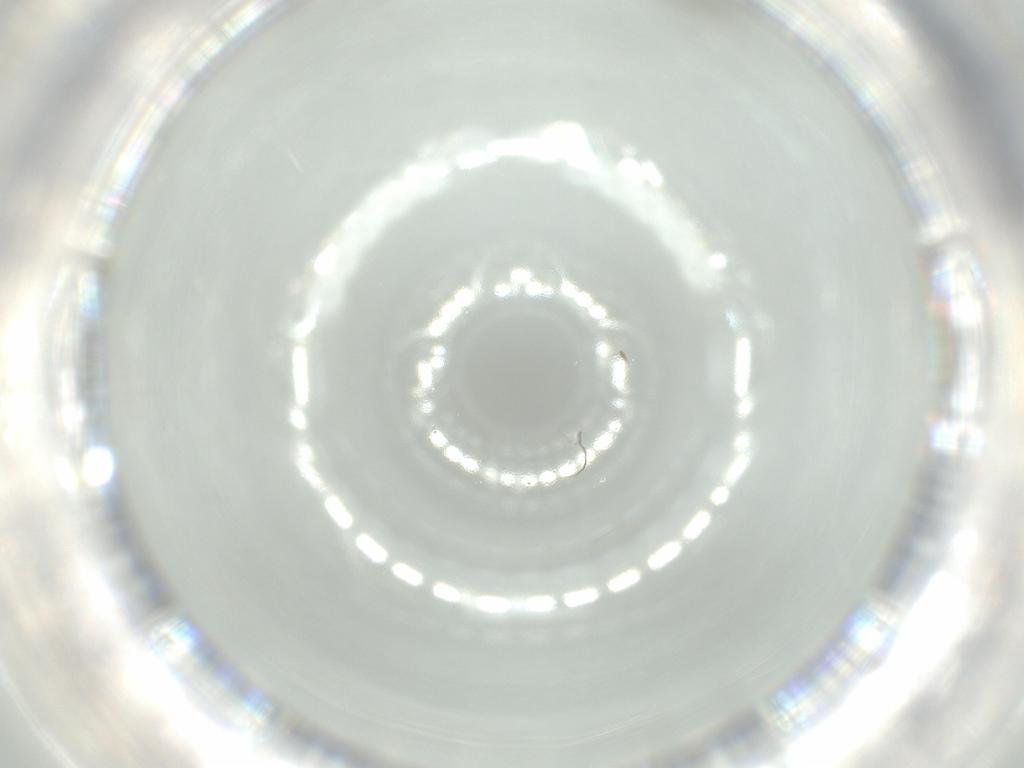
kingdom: Animalia
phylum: Arthropoda
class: Insecta
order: Diptera
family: Cecidomyiidae
